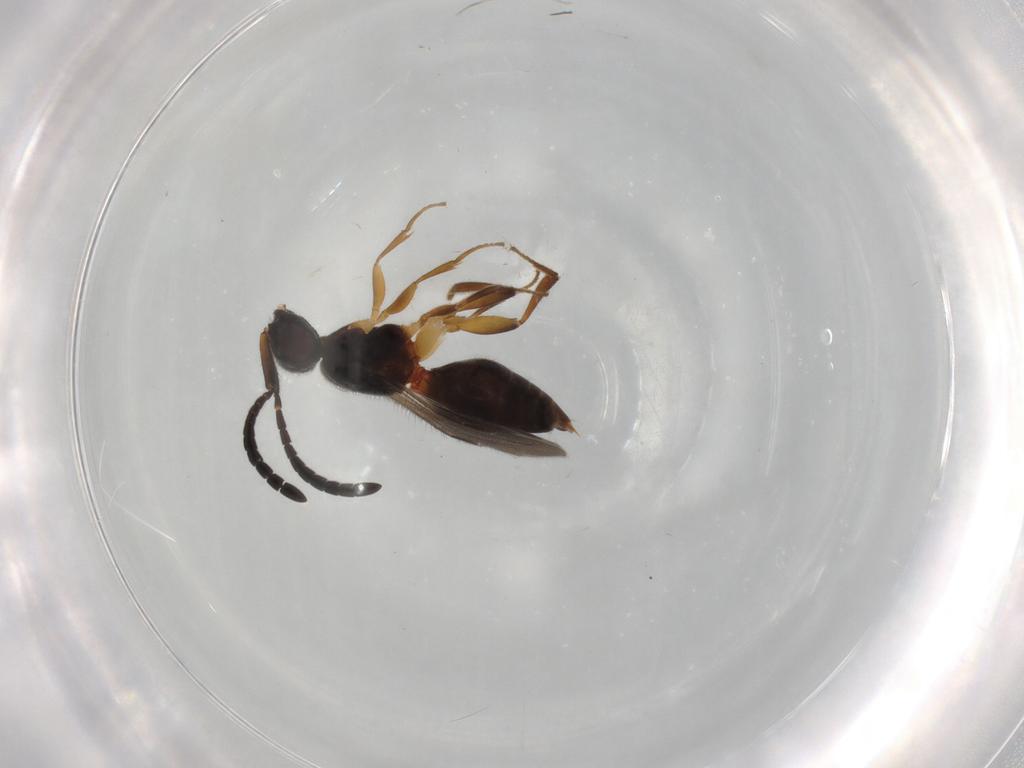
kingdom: Animalia
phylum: Arthropoda
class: Insecta
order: Hymenoptera
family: Megaspilidae
